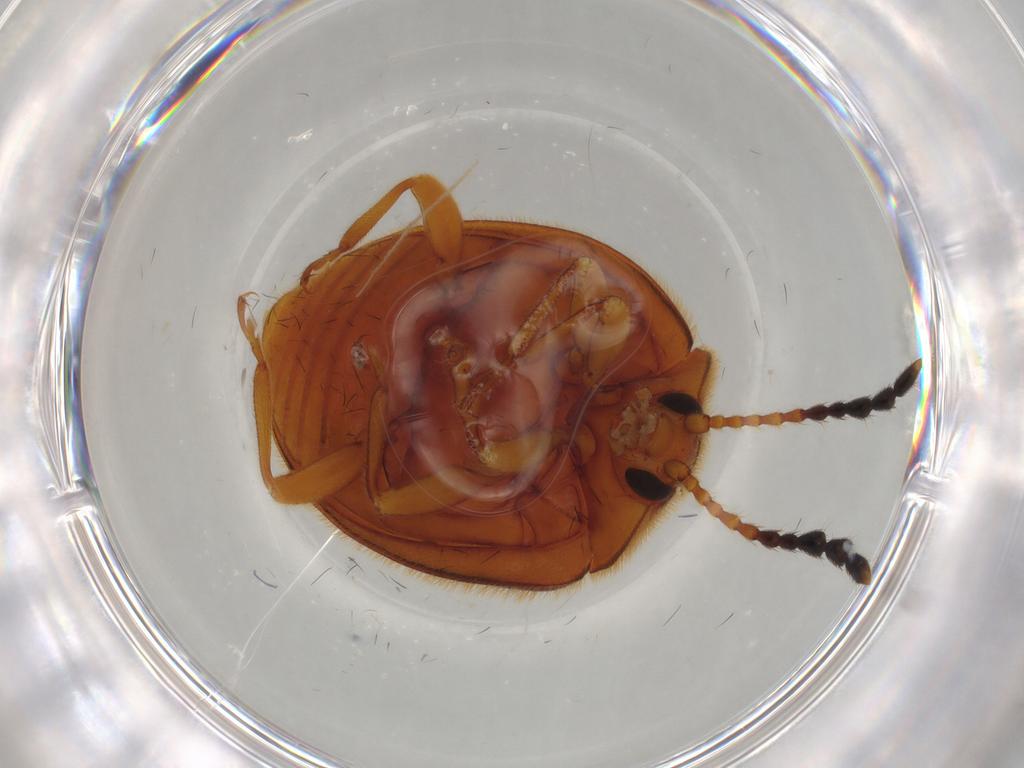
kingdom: Animalia
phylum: Arthropoda
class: Insecta
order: Coleoptera
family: Endomychidae
